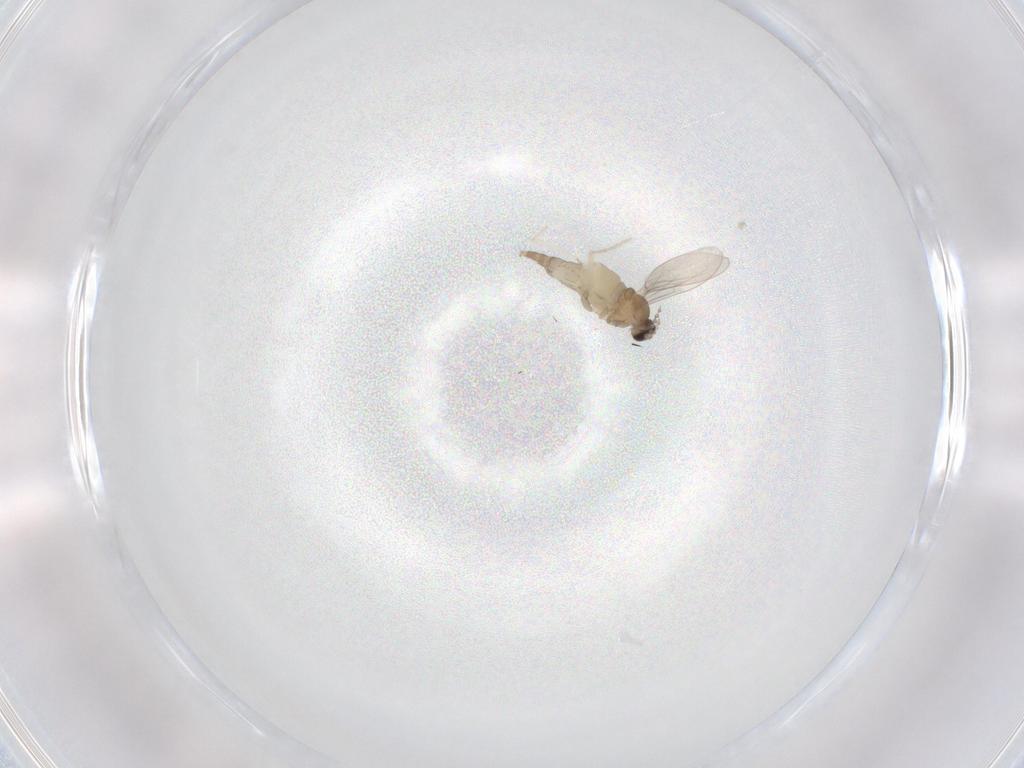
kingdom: Animalia
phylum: Arthropoda
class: Insecta
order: Diptera
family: Cecidomyiidae
